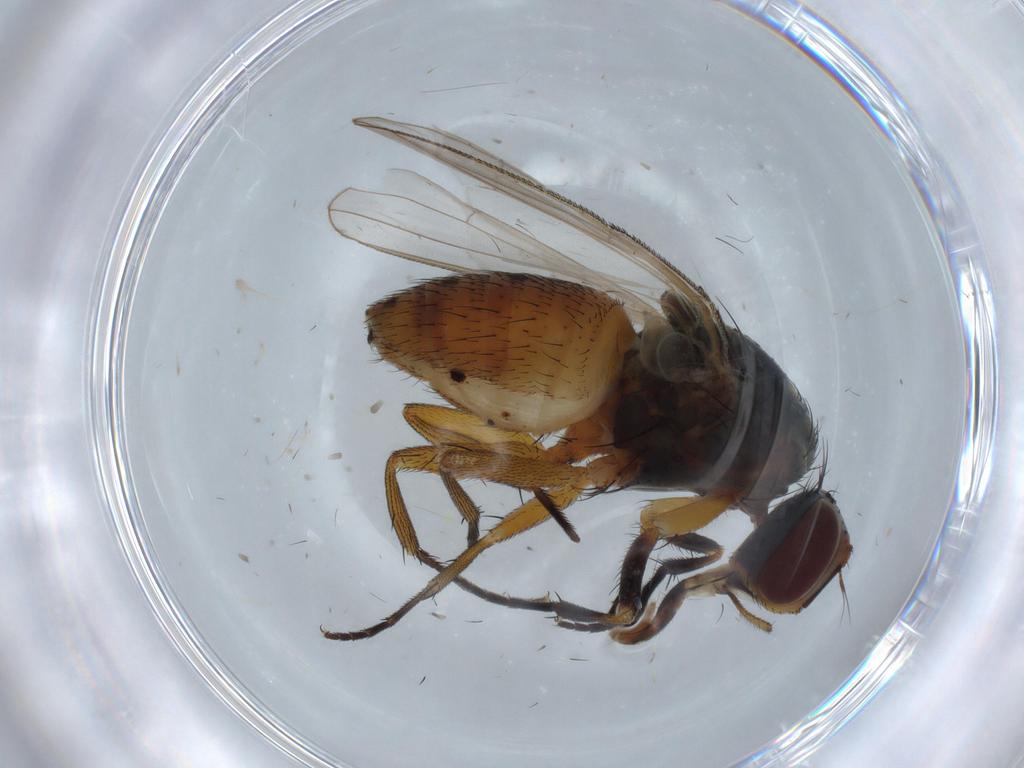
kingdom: Animalia
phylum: Arthropoda
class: Insecta
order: Diptera
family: Muscidae
